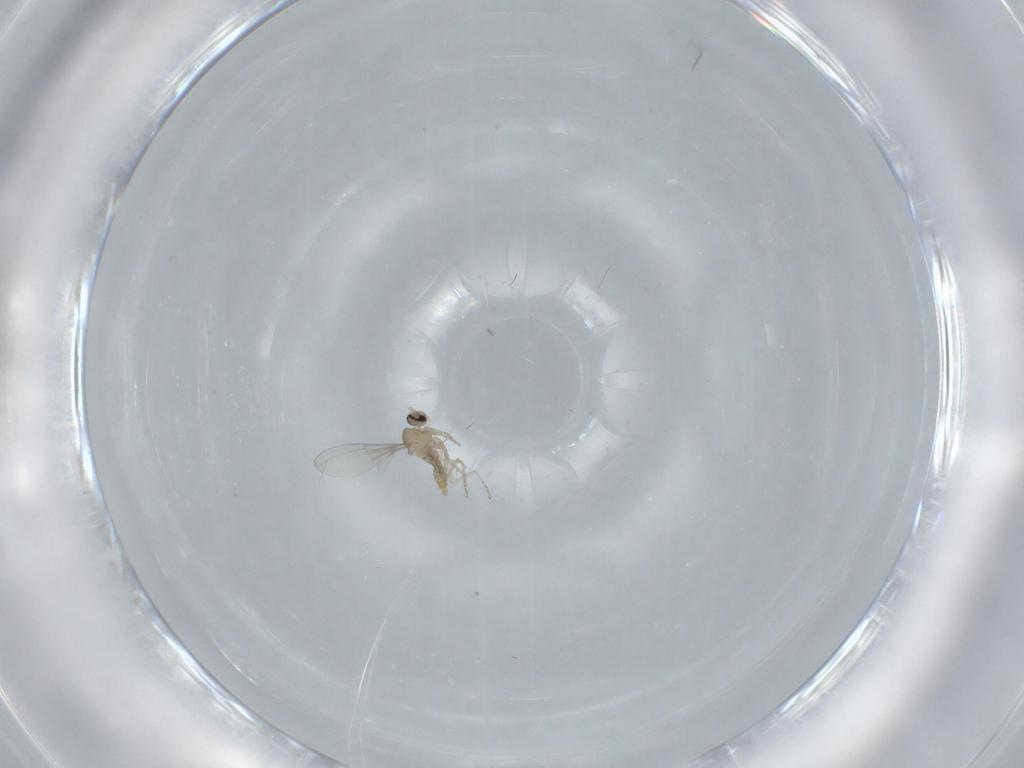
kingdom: Animalia
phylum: Arthropoda
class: Insecta
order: Diptera
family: Cecidomyiidae
